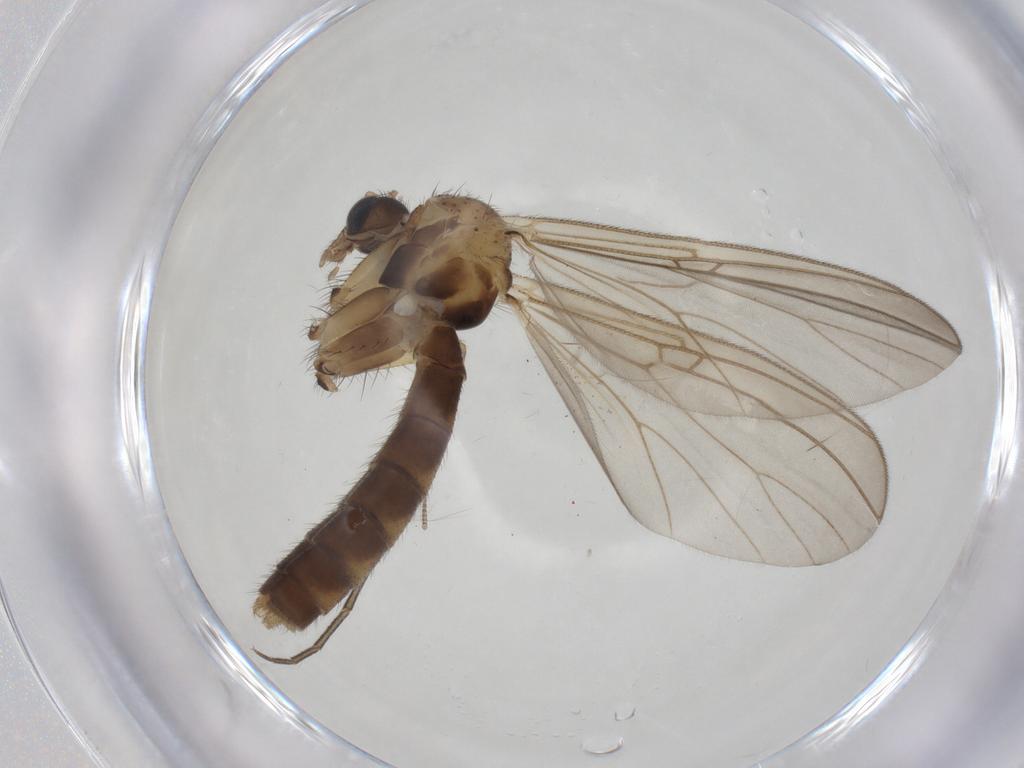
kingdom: Animalia
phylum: Arthropoda
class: Insecta
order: Diptera
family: Mycetophilidae
